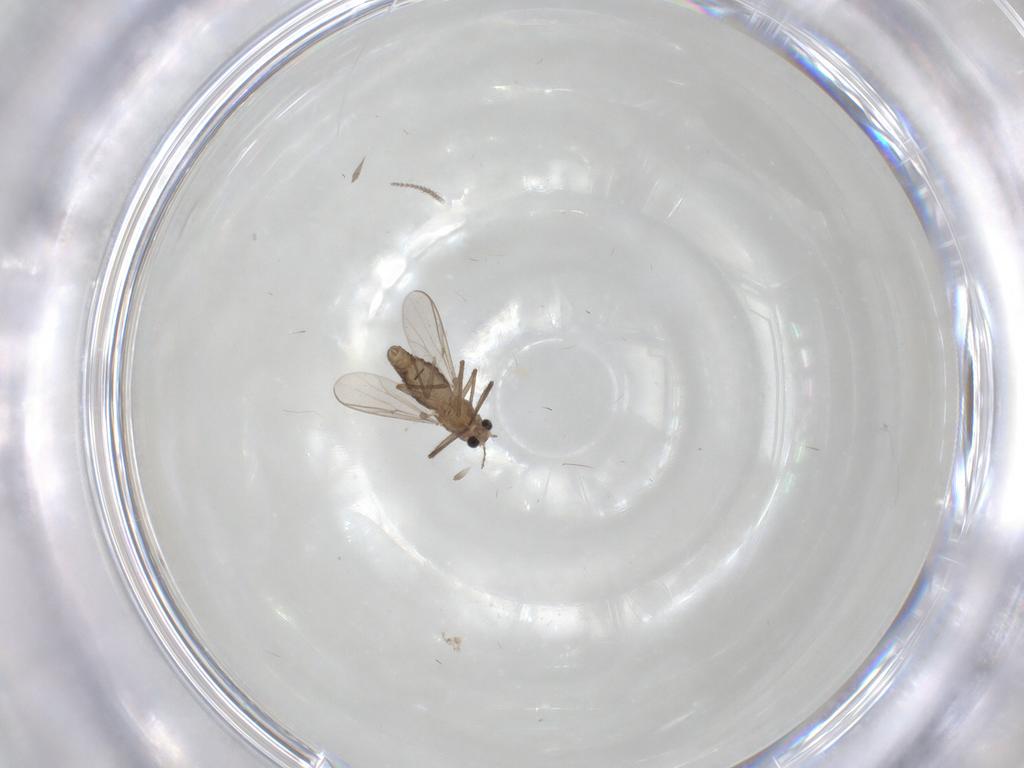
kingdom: Animalia
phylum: Arthropoda
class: Insecta
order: Diptera
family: Chironomidae
